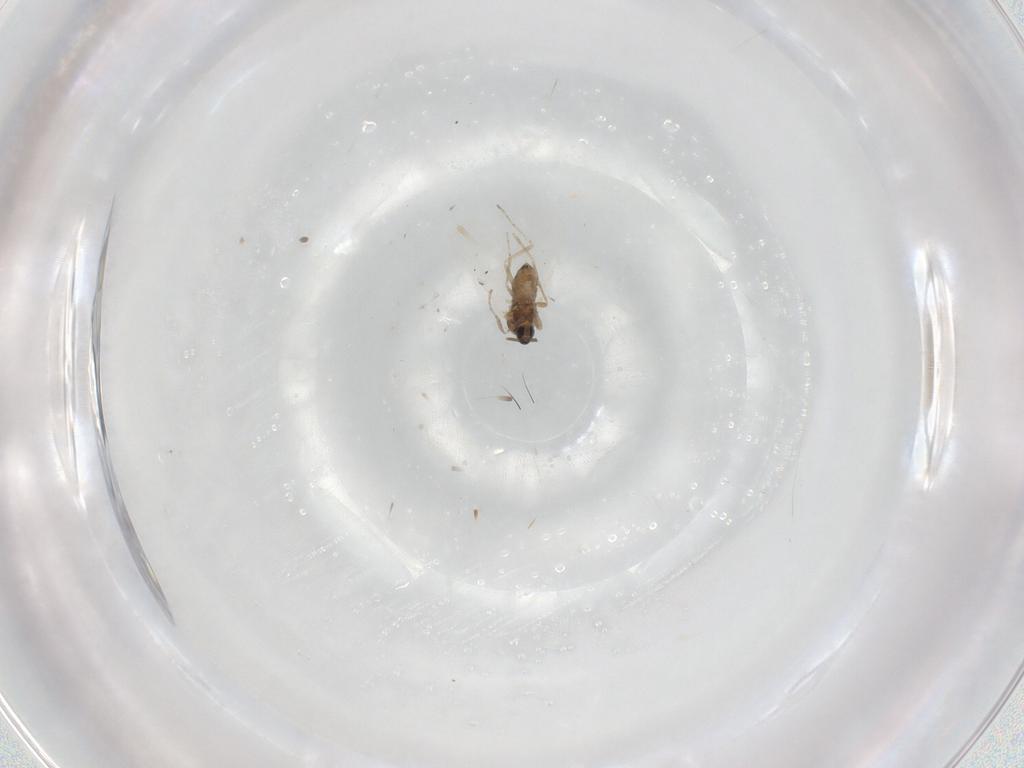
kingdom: Animalia
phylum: Arthropoda
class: Insecta
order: Diptera
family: Cecidomyiidae
